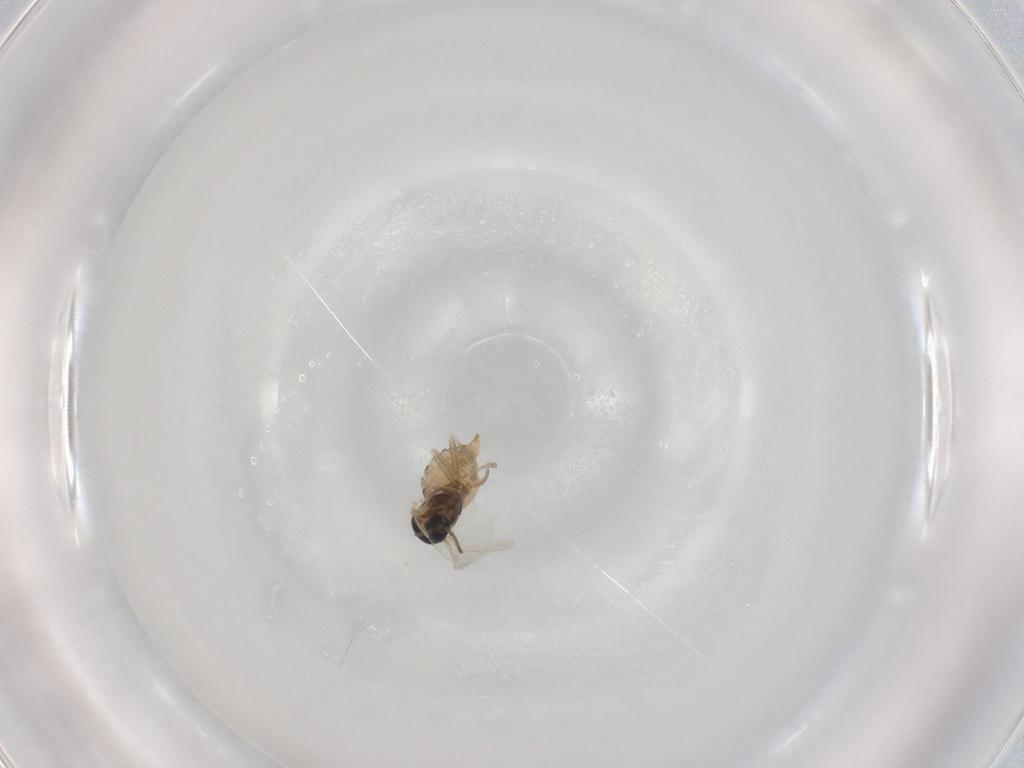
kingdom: Animalia
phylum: Arthropoda
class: Insecta
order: Diptera
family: Cecidomyiidae
